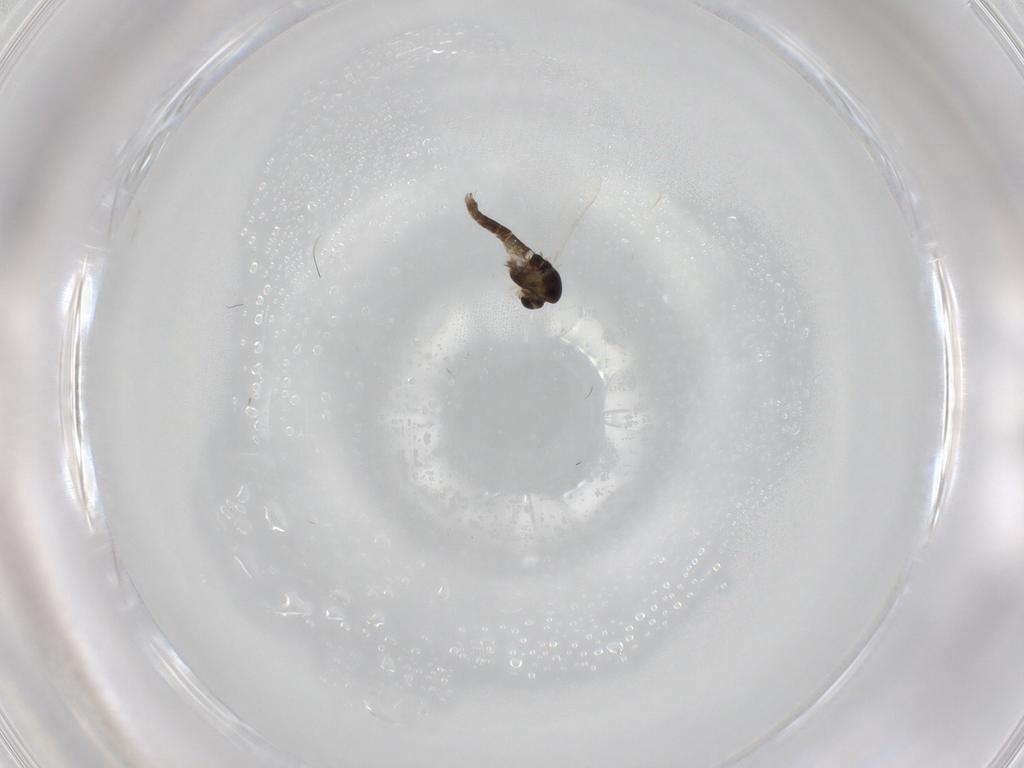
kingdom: Animalia
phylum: Arthropoda
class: Insecta
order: Diptera
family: Chironomidae
